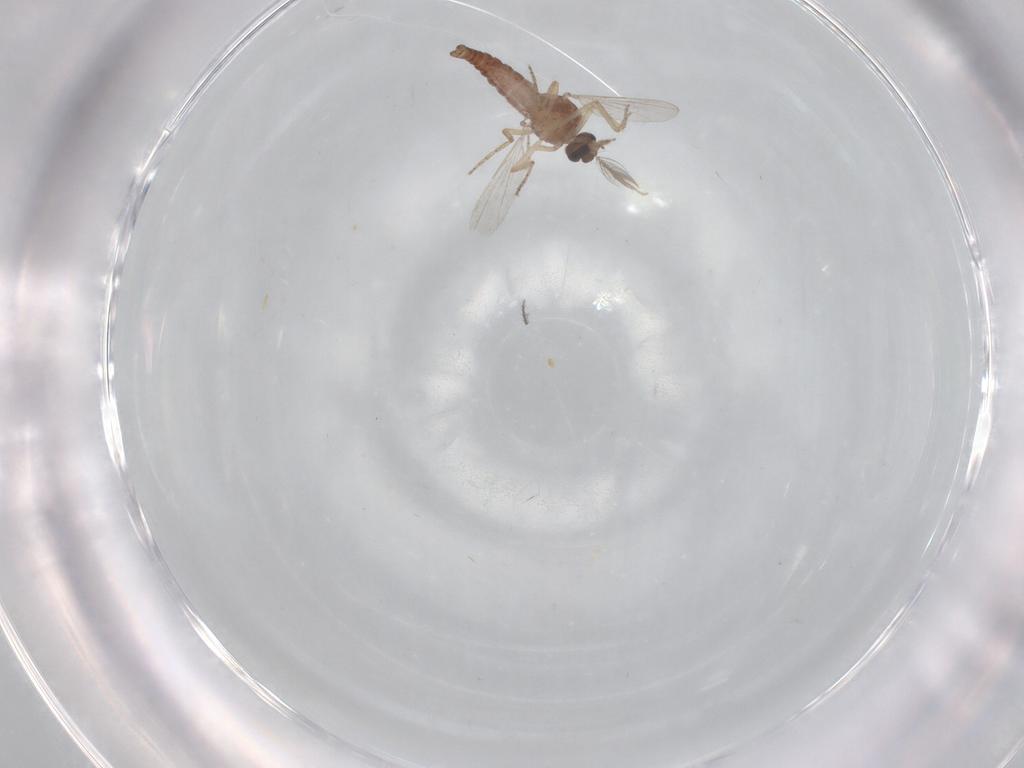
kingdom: Animalia
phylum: Arthropoda
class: Insecta
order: Diptera
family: Ceratopogonidae
